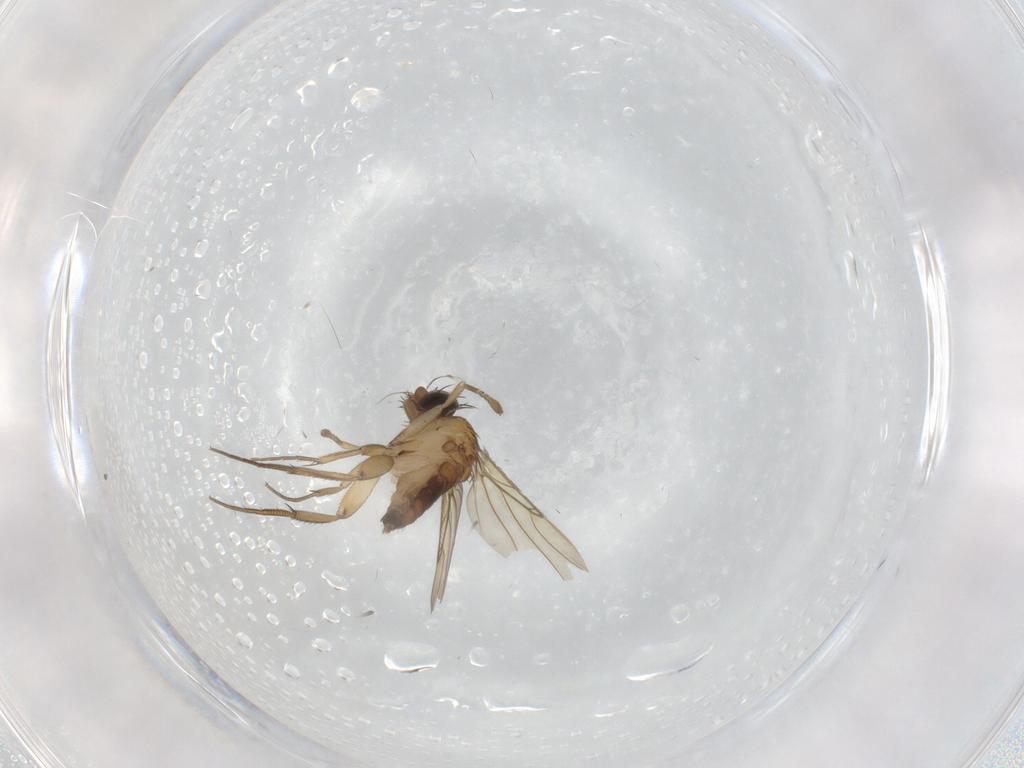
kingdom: Animalia
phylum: Arthropoda
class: Insecta
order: Diptera
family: Phoridae
